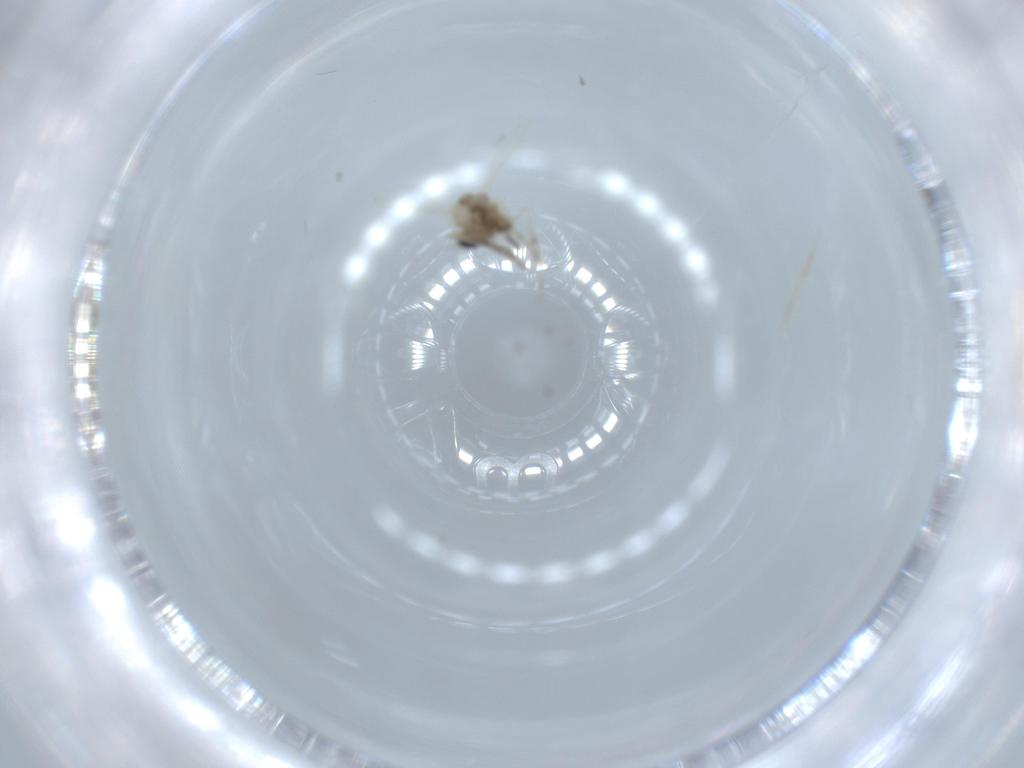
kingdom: Animalia
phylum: Arthropoda
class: Insecta
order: Diptera
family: Ceratopogonidae
